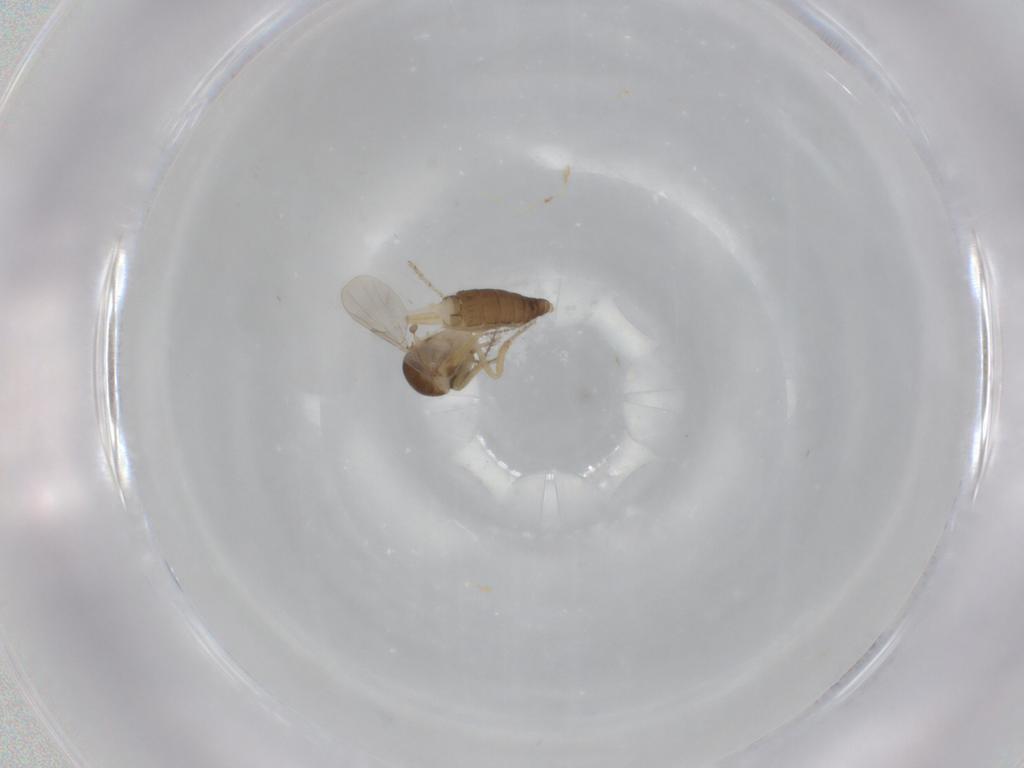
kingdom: Animalia
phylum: Arthropoda
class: Insecta
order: Diptera
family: Ceratopogonidae
